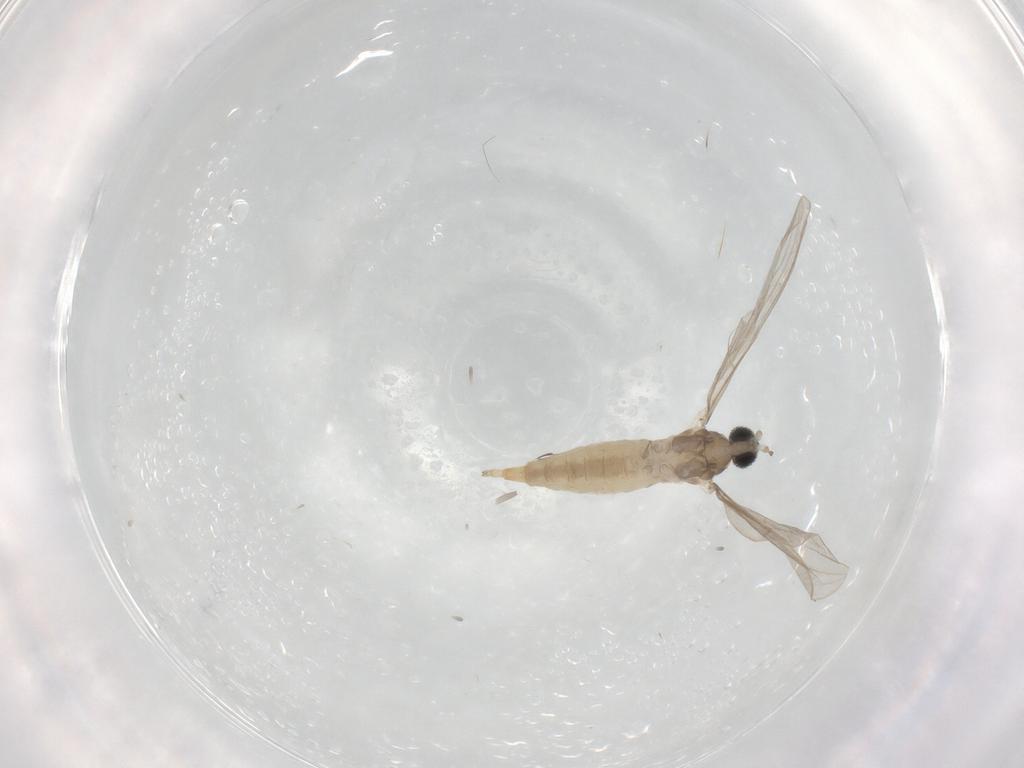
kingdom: Animalia
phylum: Arthropoda
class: Insecta
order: Diptera
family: Cecidomyiidae
